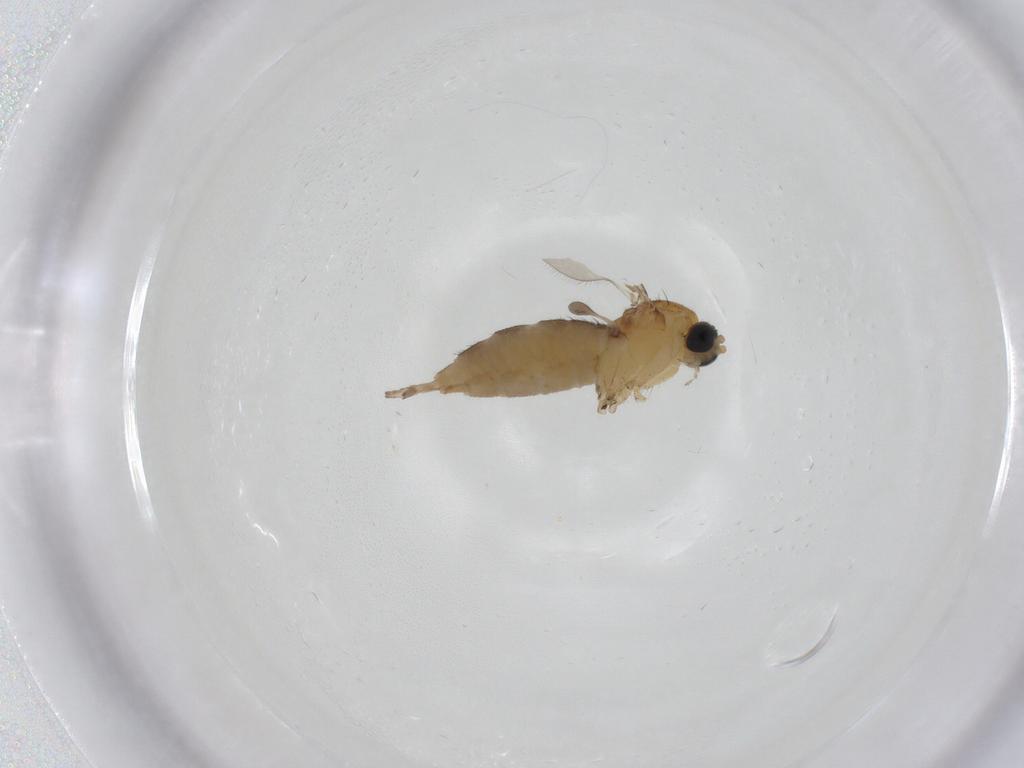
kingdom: Animalia
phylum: Arthropoda
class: Insecta
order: Diptera
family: Sciaridae
